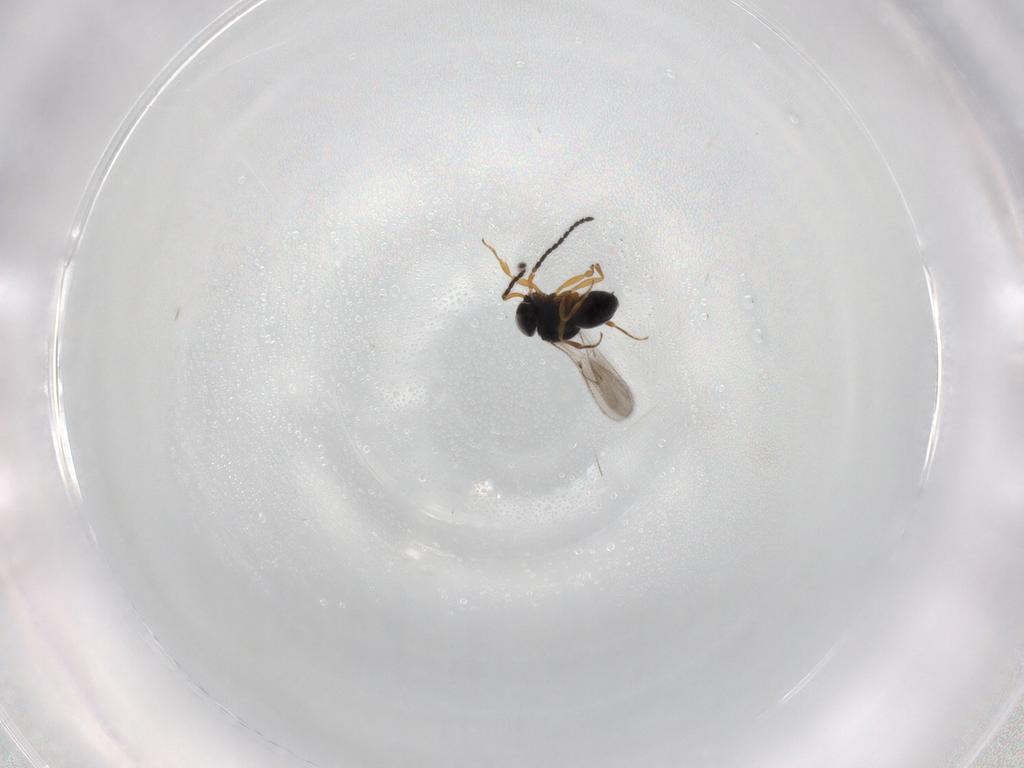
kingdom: Animalia
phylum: Arthropoda
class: Insecta
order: Hymenoptera
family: Scelionidae
